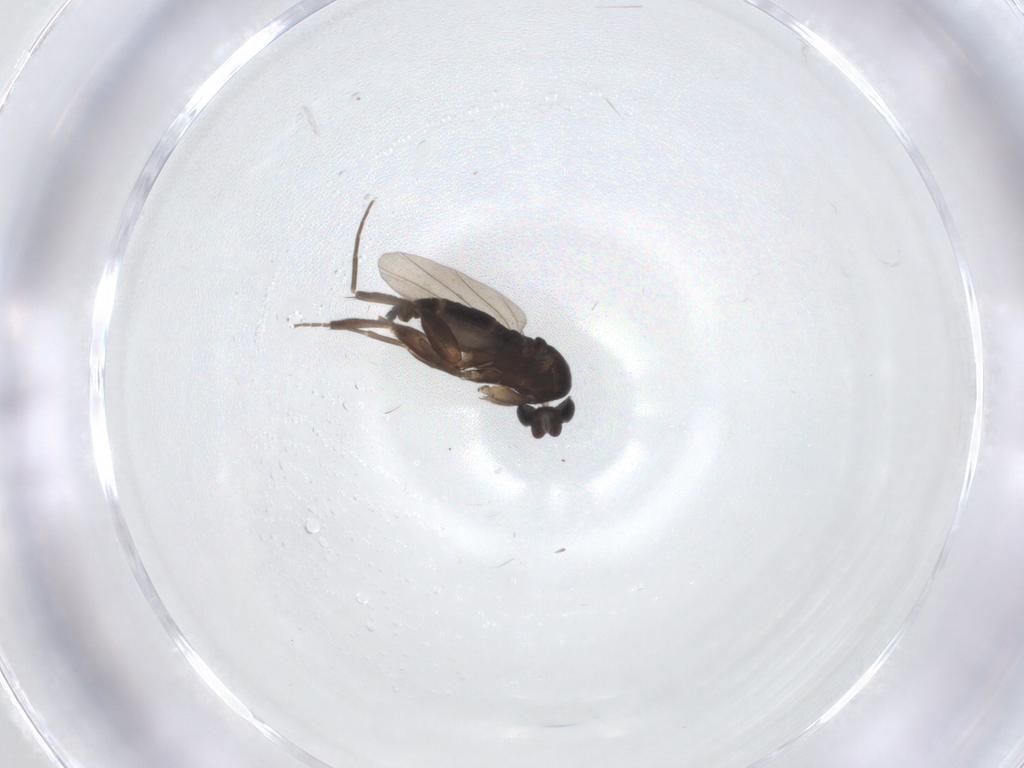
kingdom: Animalia
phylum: Arthropoda
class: Insecta
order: Diptera
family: Phoridae
